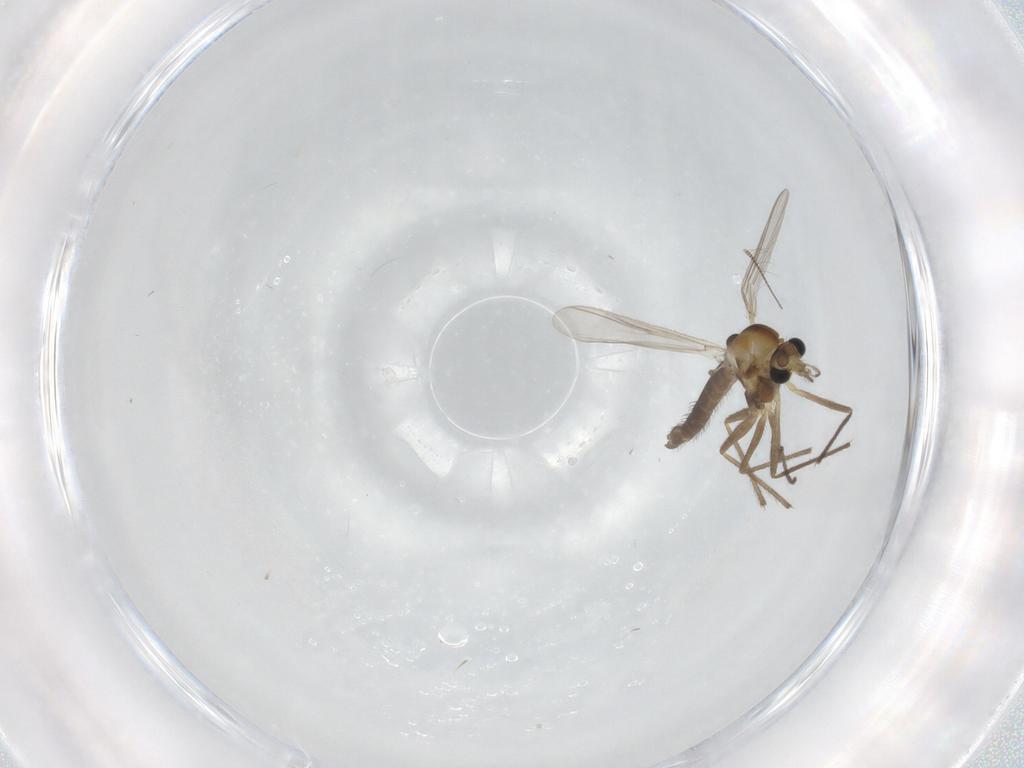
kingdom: Animalia
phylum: Arthropoda
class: Insecta
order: Diptera
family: Chironomidae
